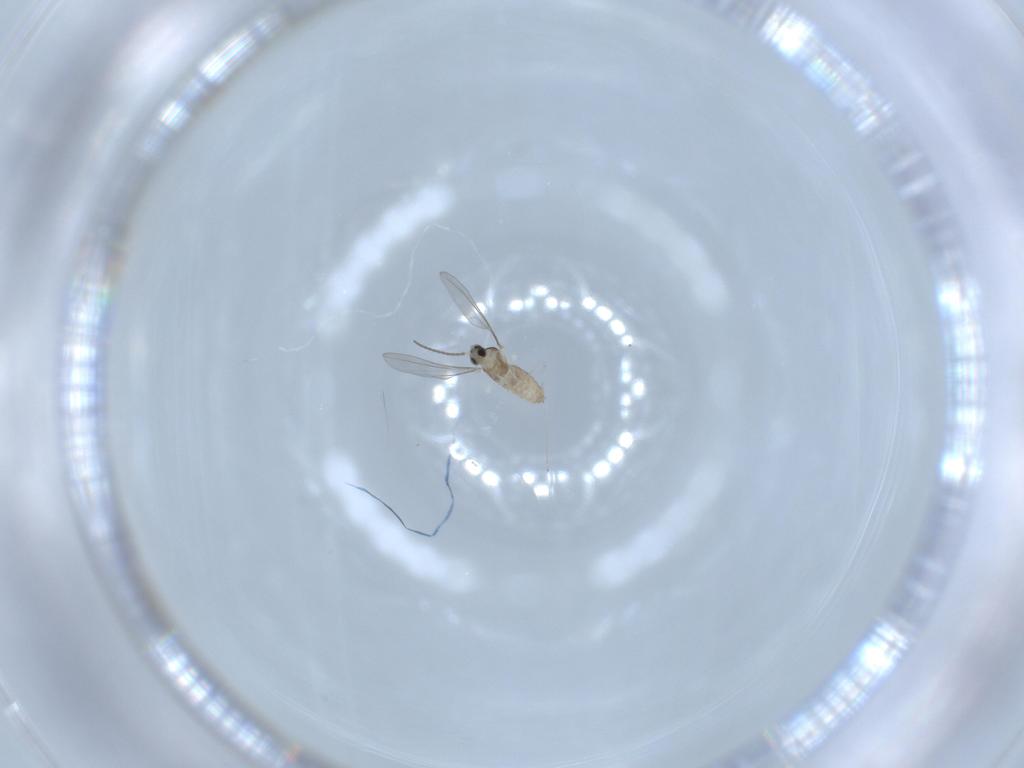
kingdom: Animalia
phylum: Arthropoda
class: Insecta
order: Diptera
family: Cecidomyiidae
